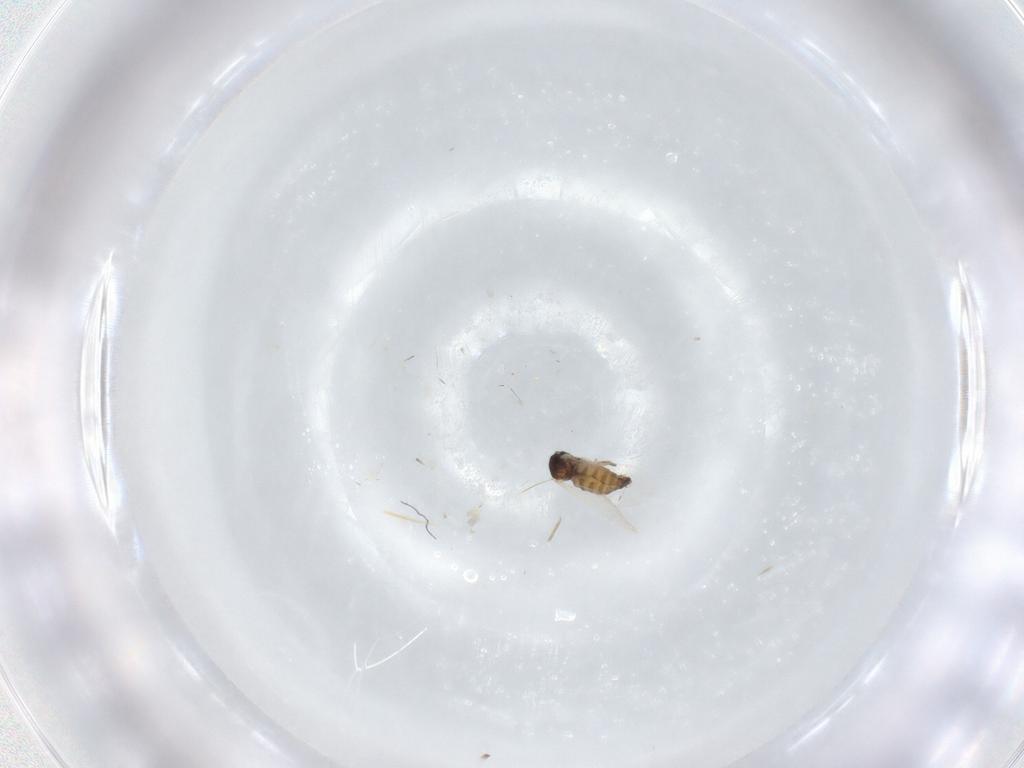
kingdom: Animalia
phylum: Arthropoda
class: Insecta
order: Diptera
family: Cecidomyiidae
